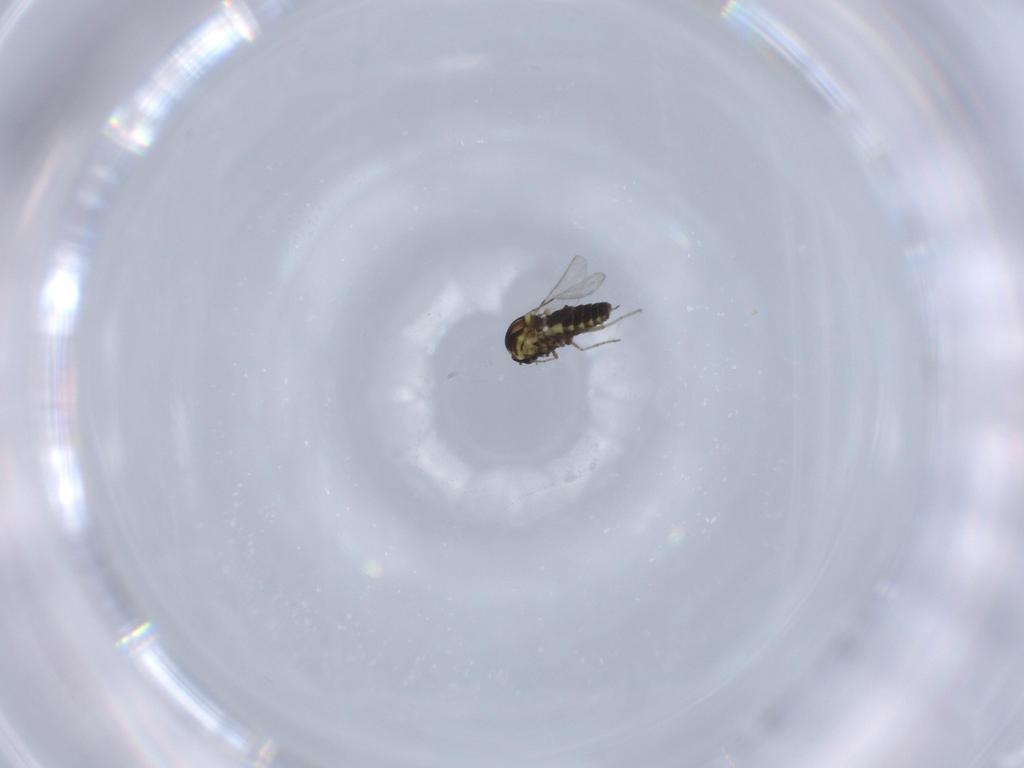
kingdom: Animalia
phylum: Arthropoda
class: Insecta
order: Diptera
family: Ceratopogonidae
